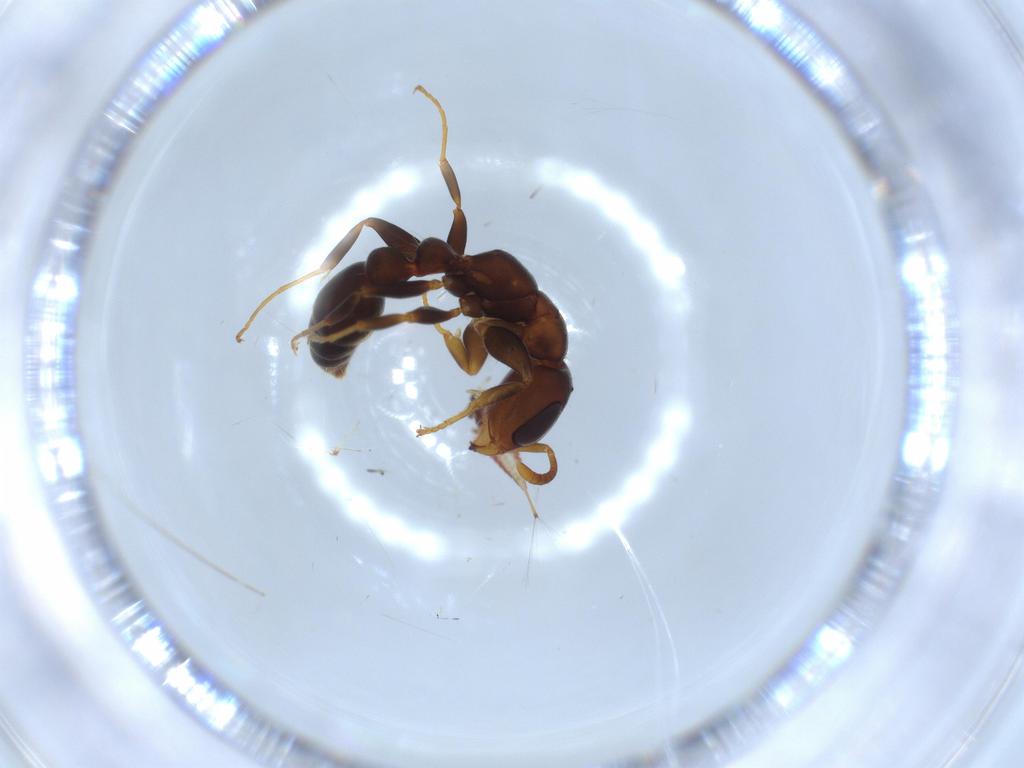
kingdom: Animalia
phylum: Arthropoda
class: Insecta
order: Hymenoptera
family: Formicidae
